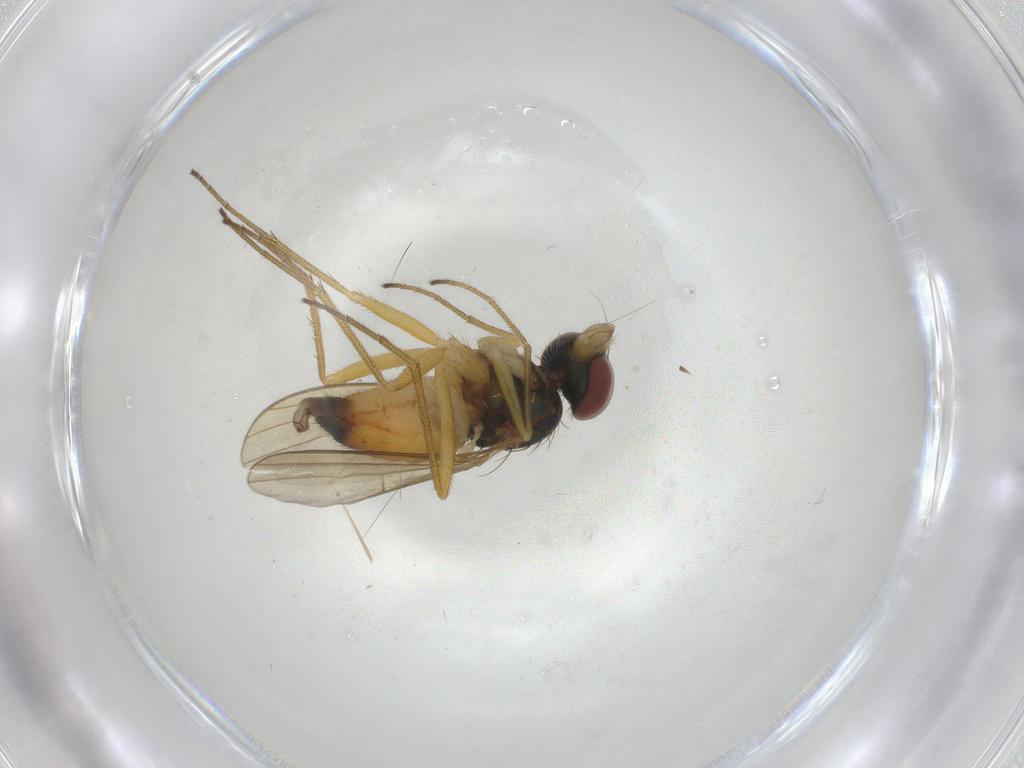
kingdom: Animalia
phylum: Arthropoda
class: Insecta
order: Diptera
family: Dolichopodidae
